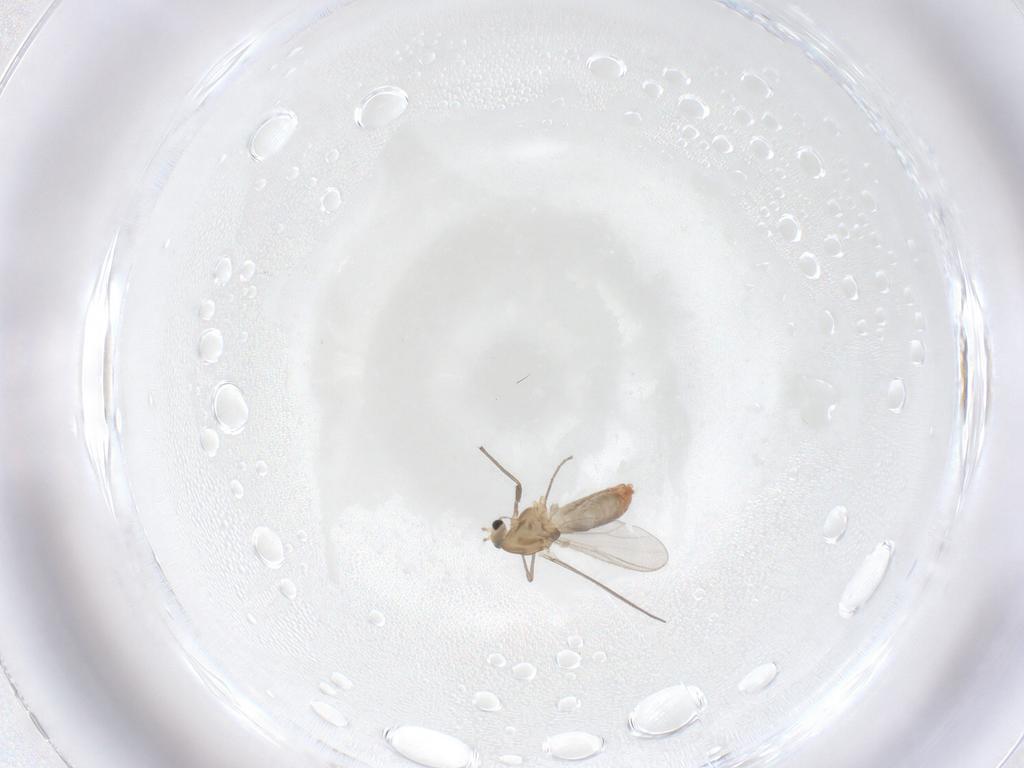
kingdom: Animalia
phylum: Arthropoda
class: Insecta
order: Diptera
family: Chironomidae
